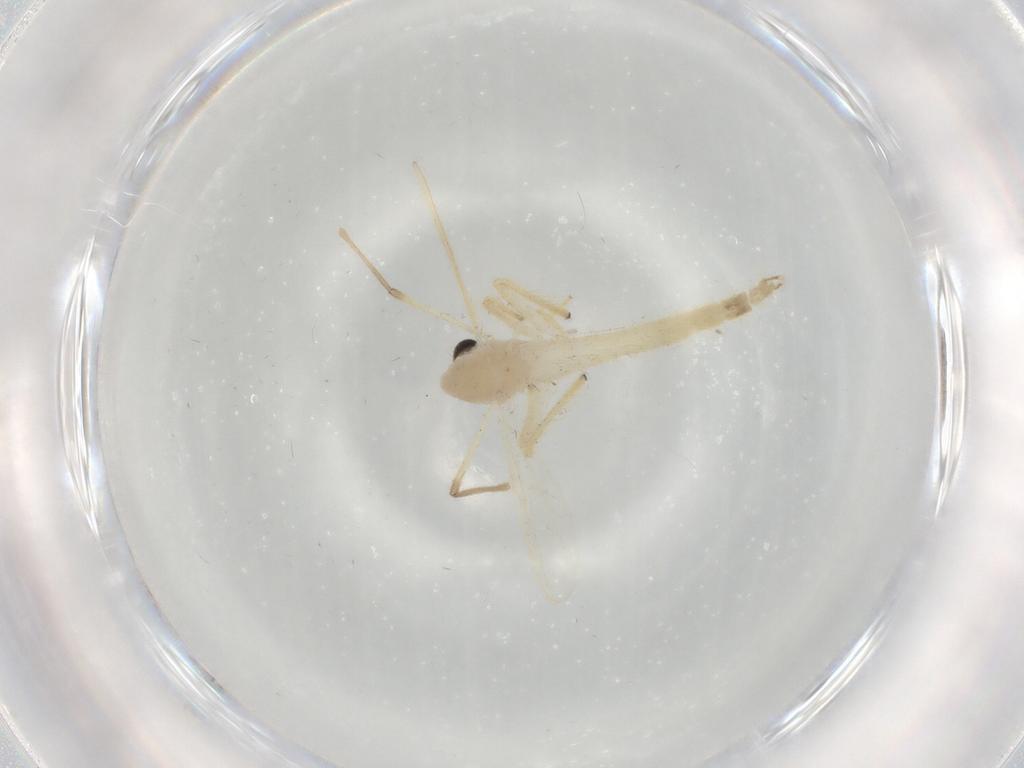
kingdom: Animalia
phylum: Arthropoda
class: Insecta
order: Diptera
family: Chironomidae
